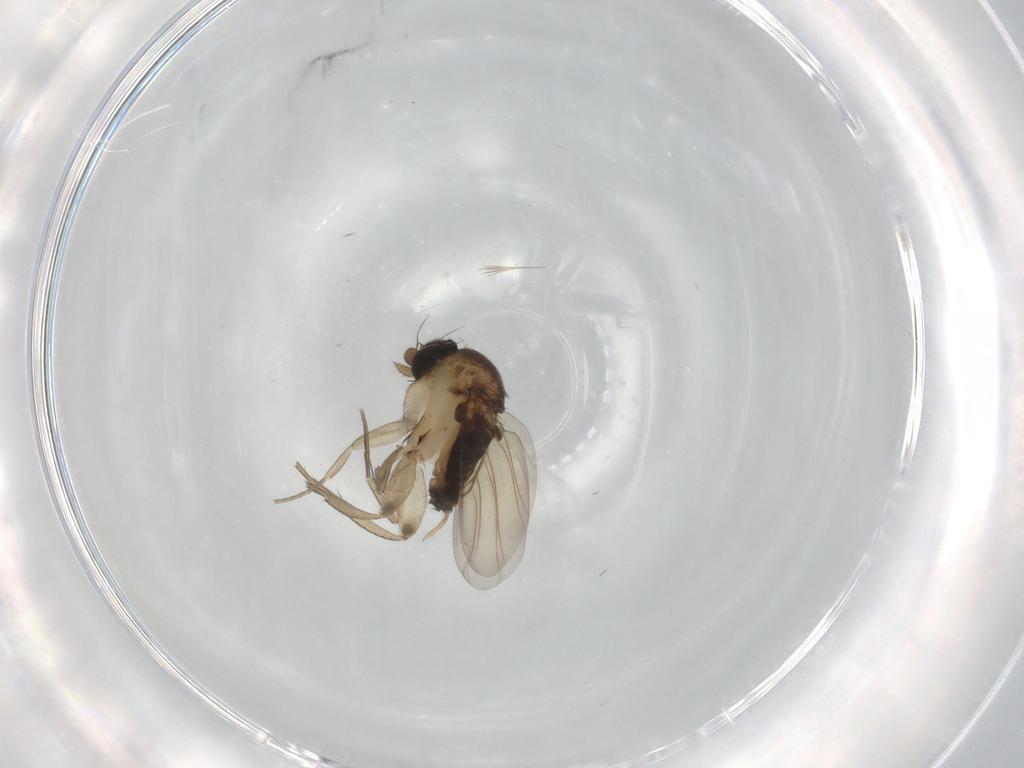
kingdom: Animalia
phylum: Arthropoda
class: Insecta
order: Diptera
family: Phoridae
